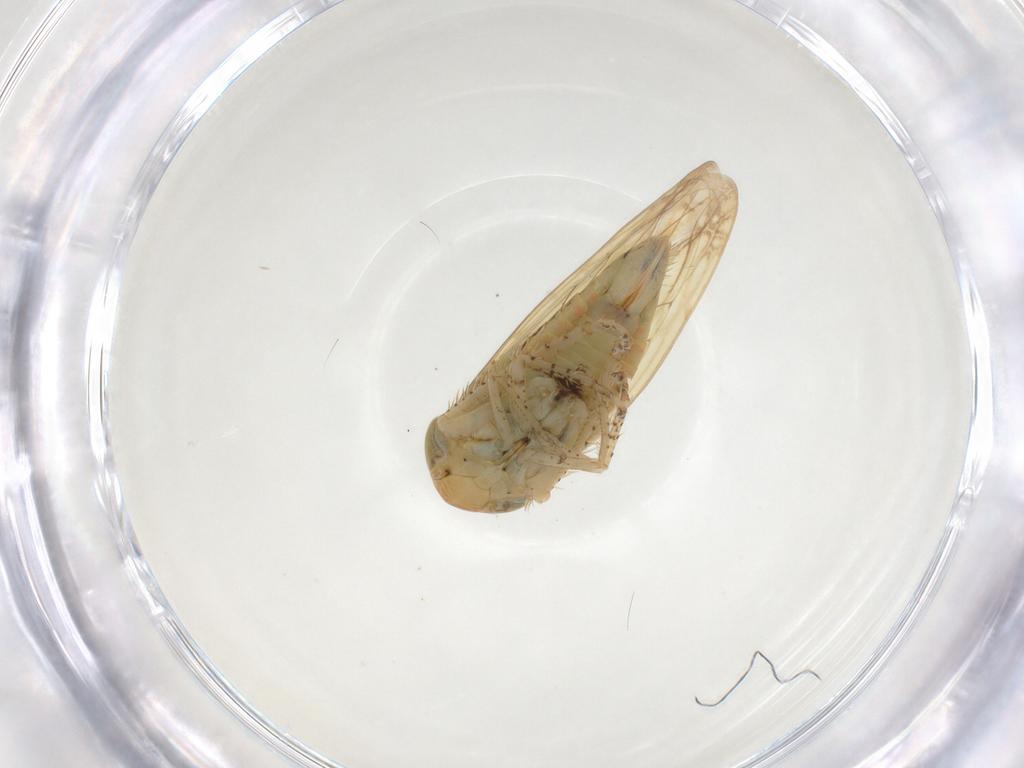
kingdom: Animalia
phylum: Arthropoda
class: Insecta
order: Hemiptera
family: Cicadellidae
